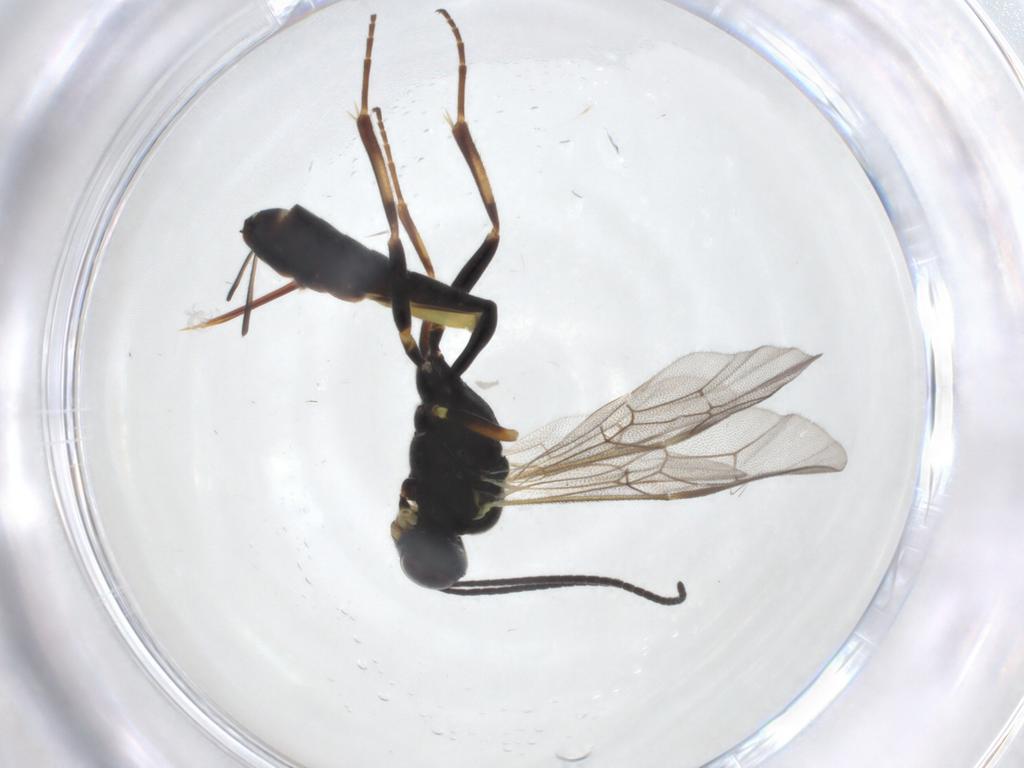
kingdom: Animalia
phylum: Arthropoda
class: Insecta
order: Hymenoptera
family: Ichneumonidae
